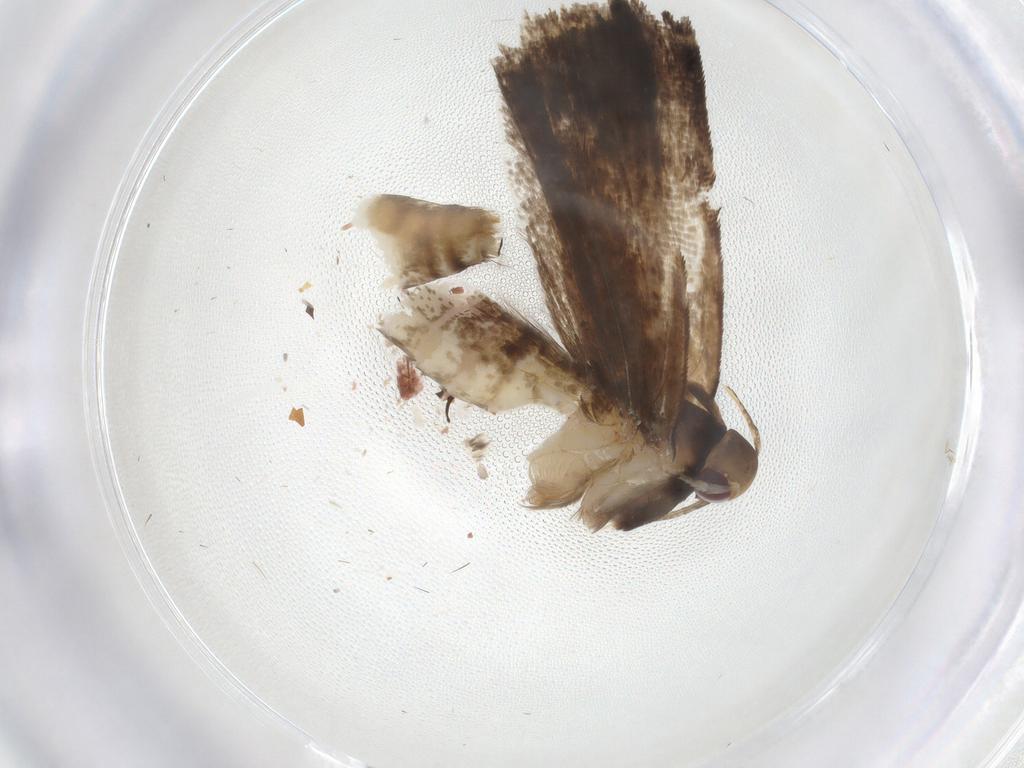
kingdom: Animalia
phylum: Arthropoda
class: Insecta
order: Lepidoptera
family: Gelechiidae
